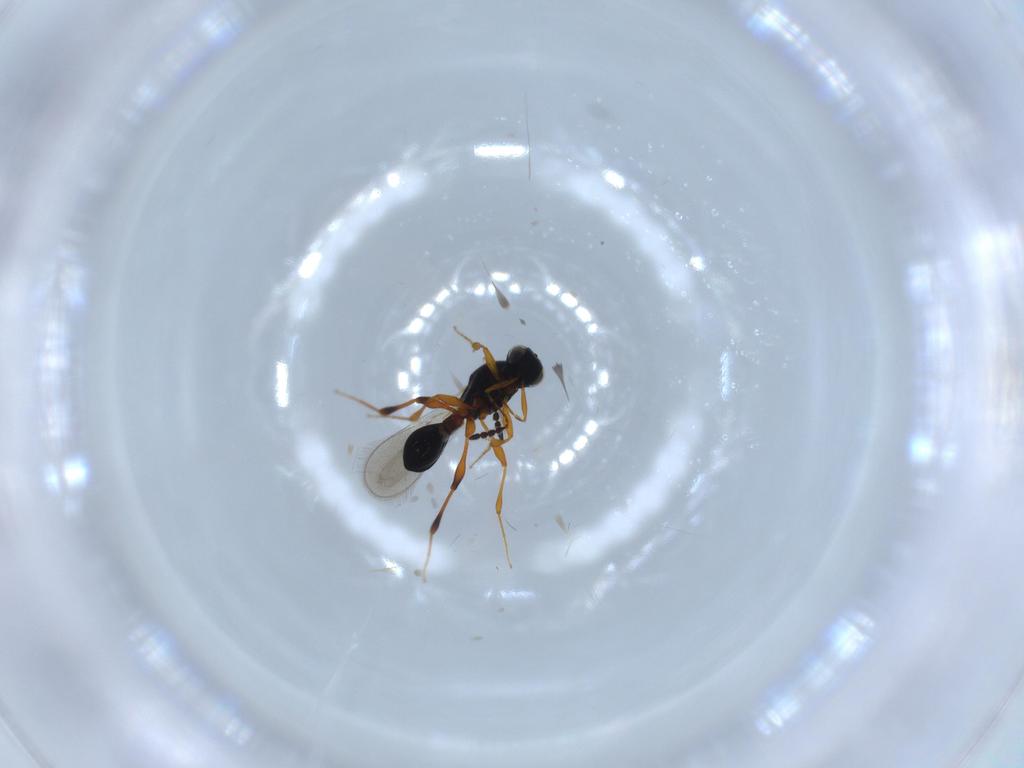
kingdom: Animalia
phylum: Arthropoda
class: Insecta
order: Hymenoptera
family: Platygastridae
